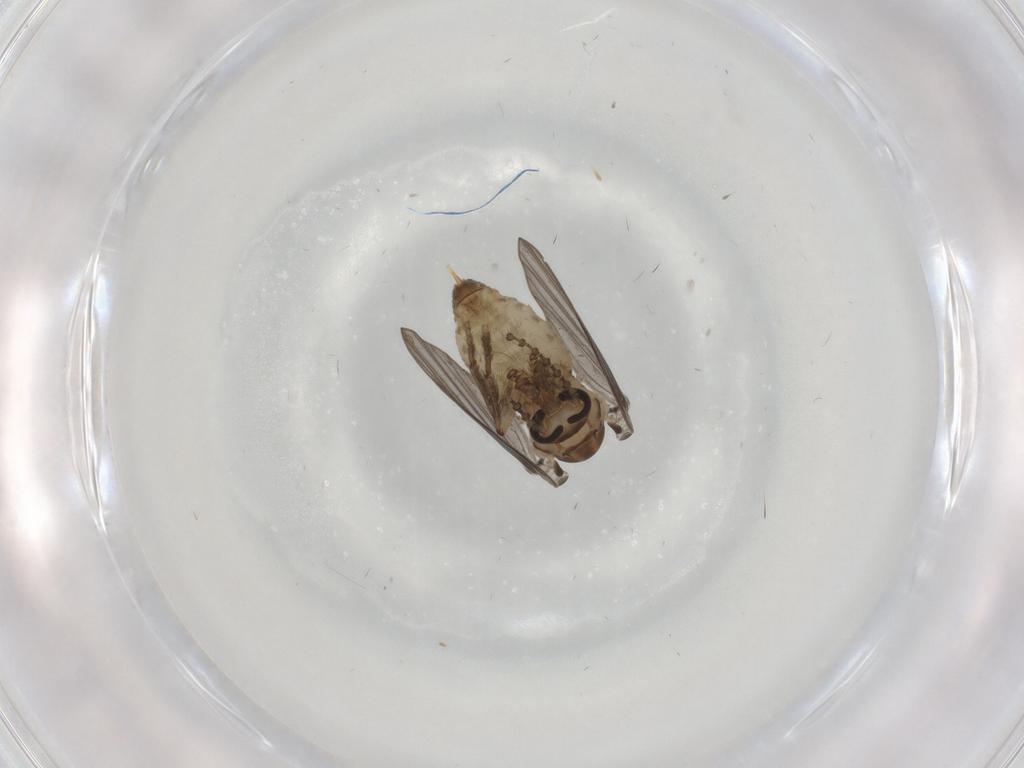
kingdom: Animalia
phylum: Arthropoda
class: Insecta
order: Diptera
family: Psychodidae
